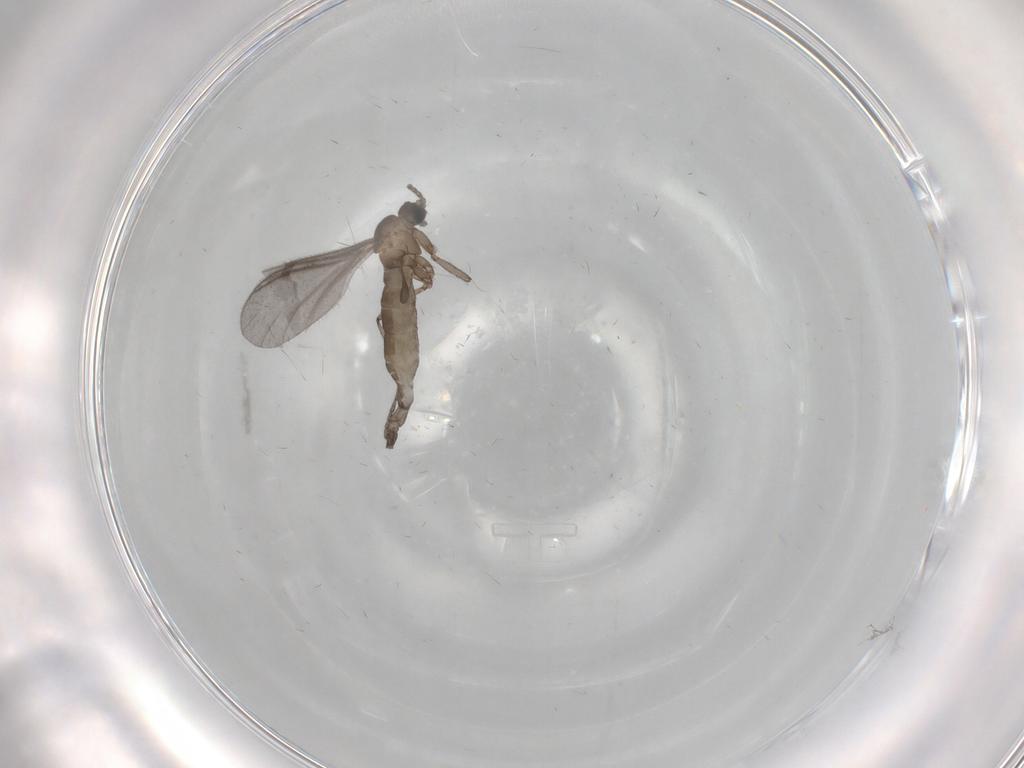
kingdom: Animalia
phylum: Arthropoda
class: Insecta
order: Diptera
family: Sciaridae
